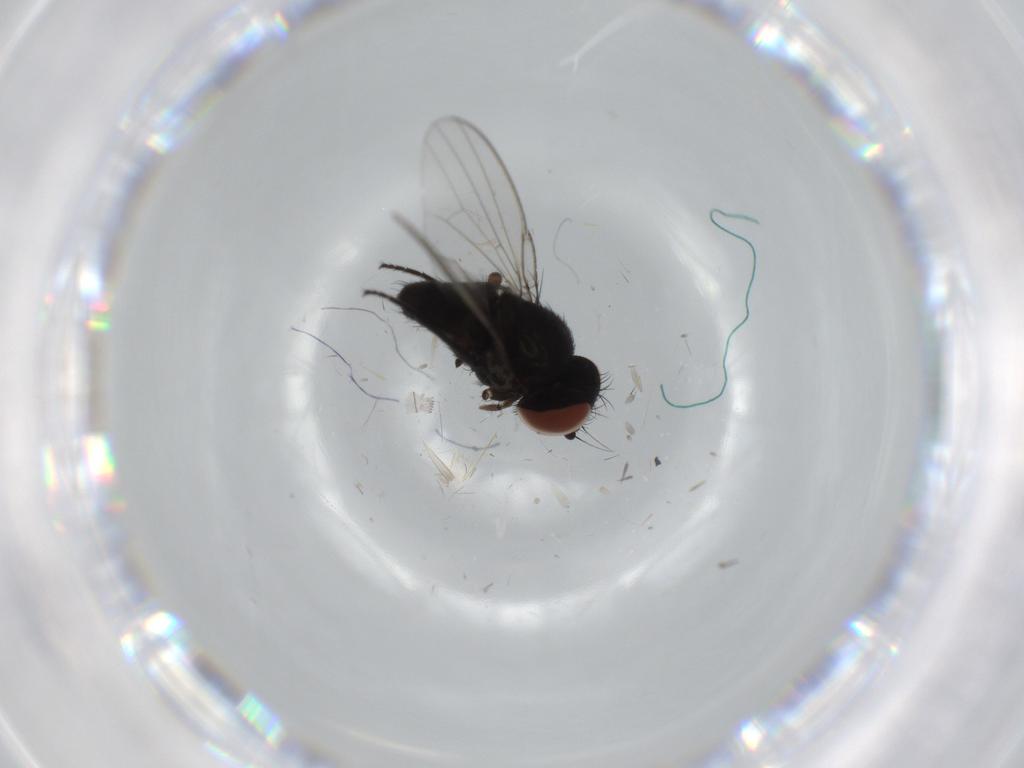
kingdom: Animalia
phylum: Arthropoda
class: Insecta
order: Diptera
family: Milichiidae
